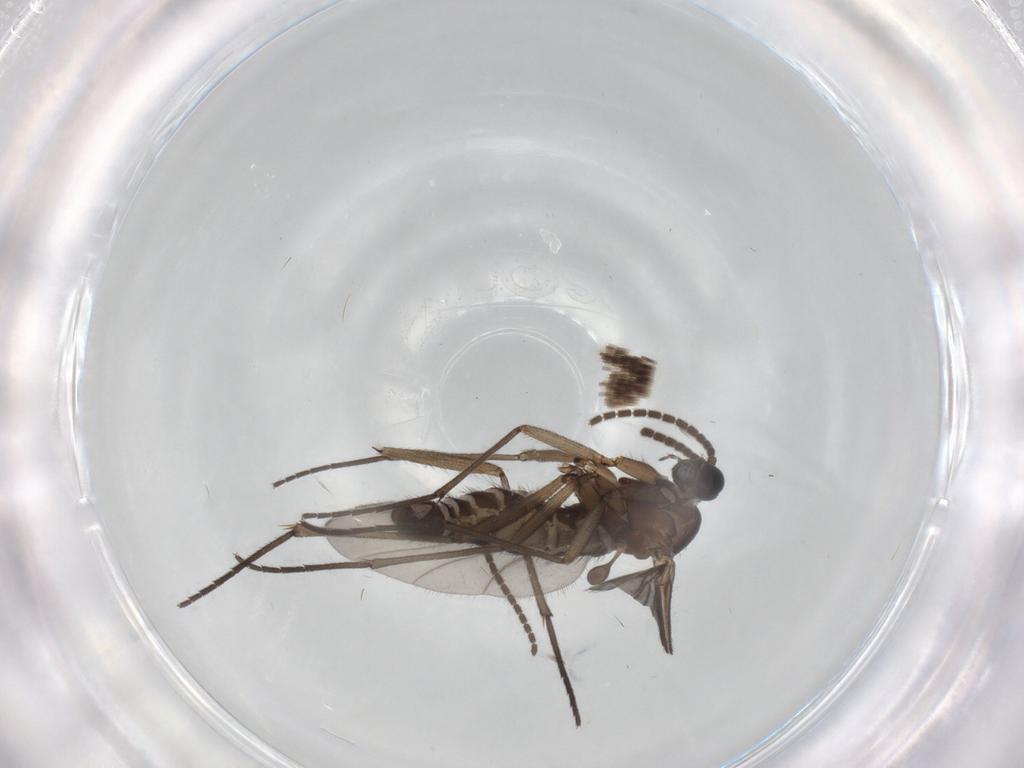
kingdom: Animalia
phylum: Arthropoda
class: Insecta
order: Diptera
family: Sciaridae
